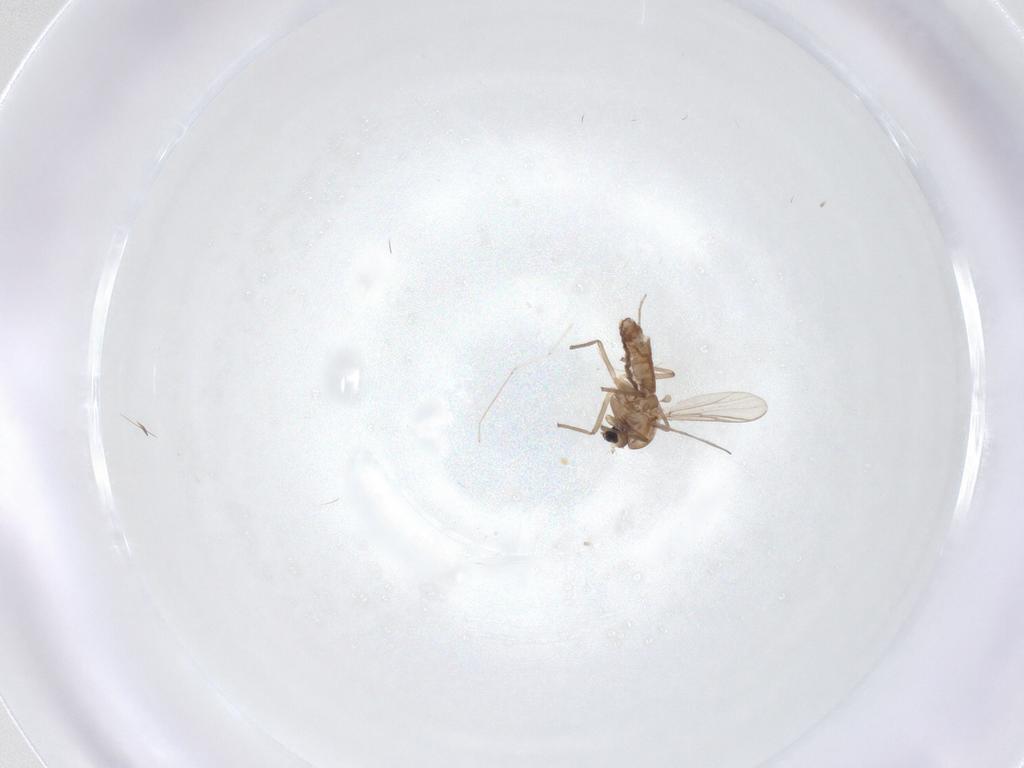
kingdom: Animalia
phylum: Arthropoda
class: Insecta
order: Diptera
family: Chironomidae
